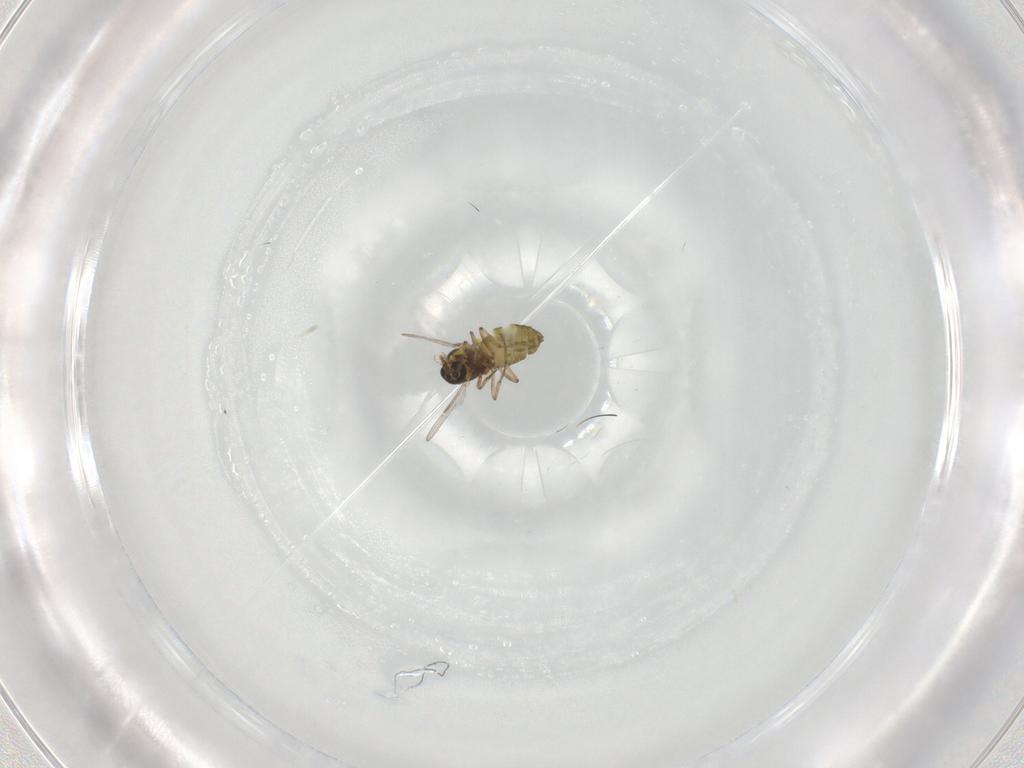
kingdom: Animalia
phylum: Arthropoda
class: Insecta
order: Diptera
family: Ceratopogonidae
